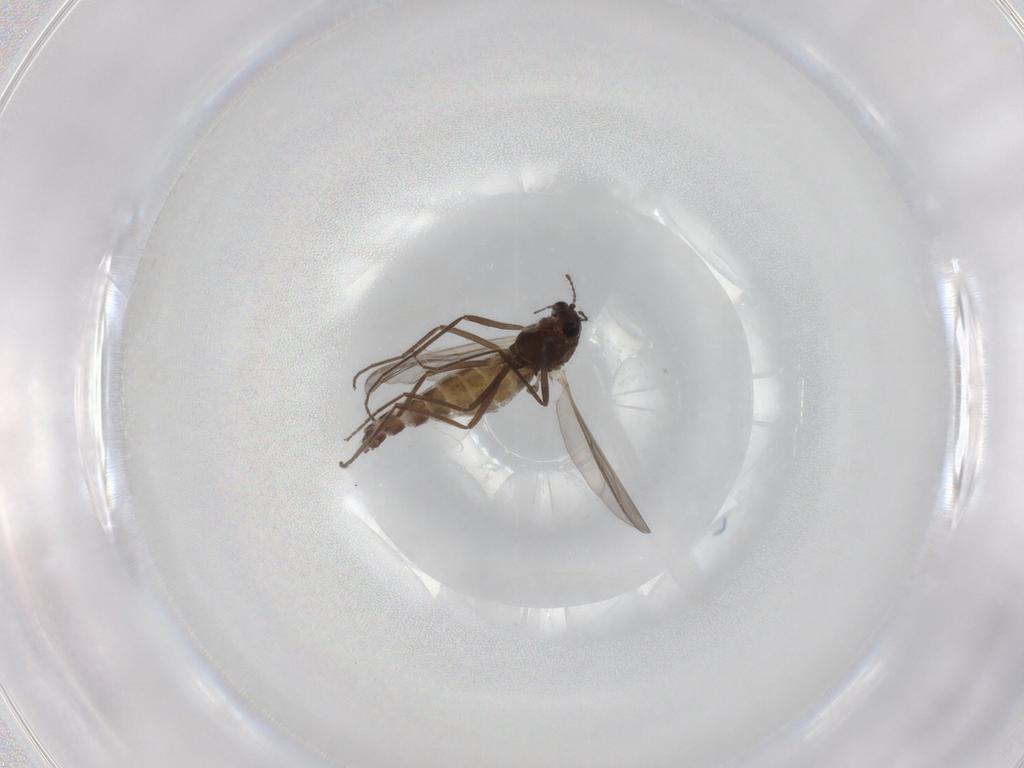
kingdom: Animalia
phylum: Arthropoda
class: Insecta
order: Diptera
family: Chironomidae
